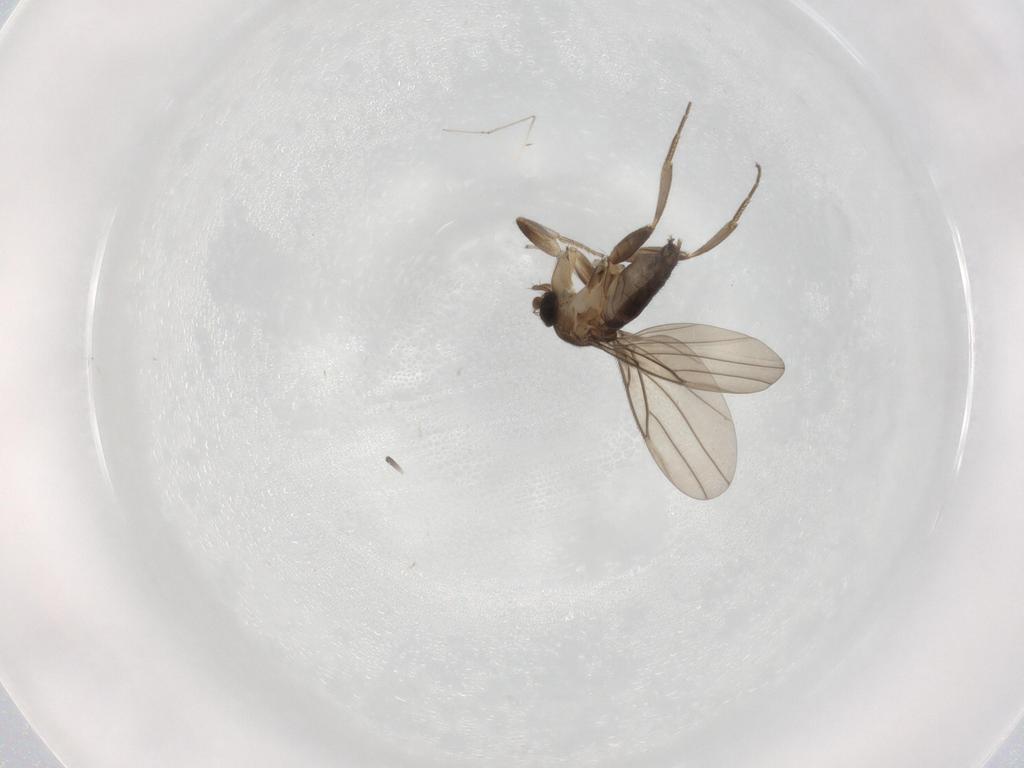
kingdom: Animalia
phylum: Arthropoda
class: Insecta
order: Diptera
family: Cecidomyiidae
